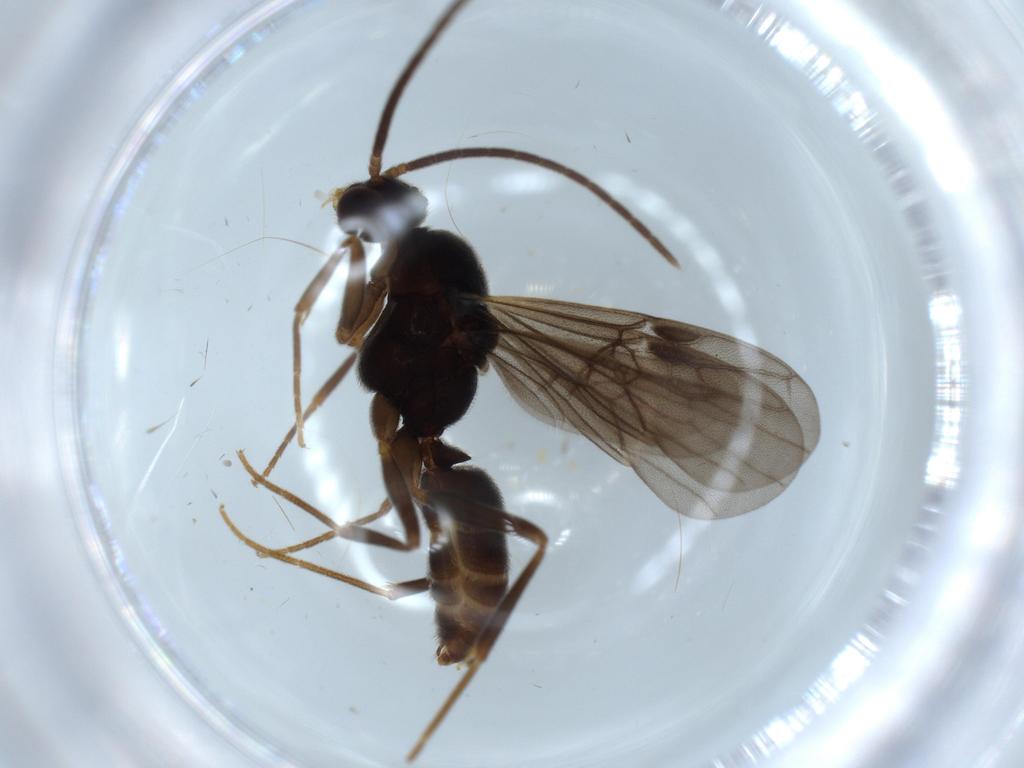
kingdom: Animalia
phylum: Arthropoda
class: Insecta
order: Hymenoptera
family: Formicidae
